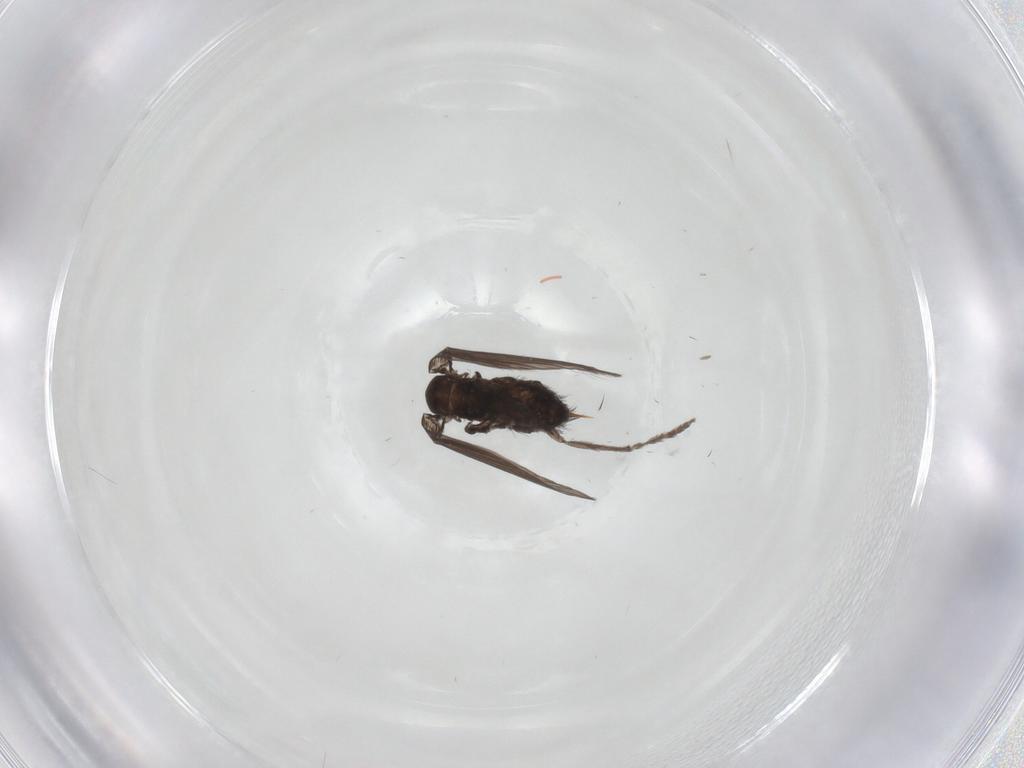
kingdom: Animalia
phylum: Arthropoda
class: Insecta
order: Diptera
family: Psychodidae
